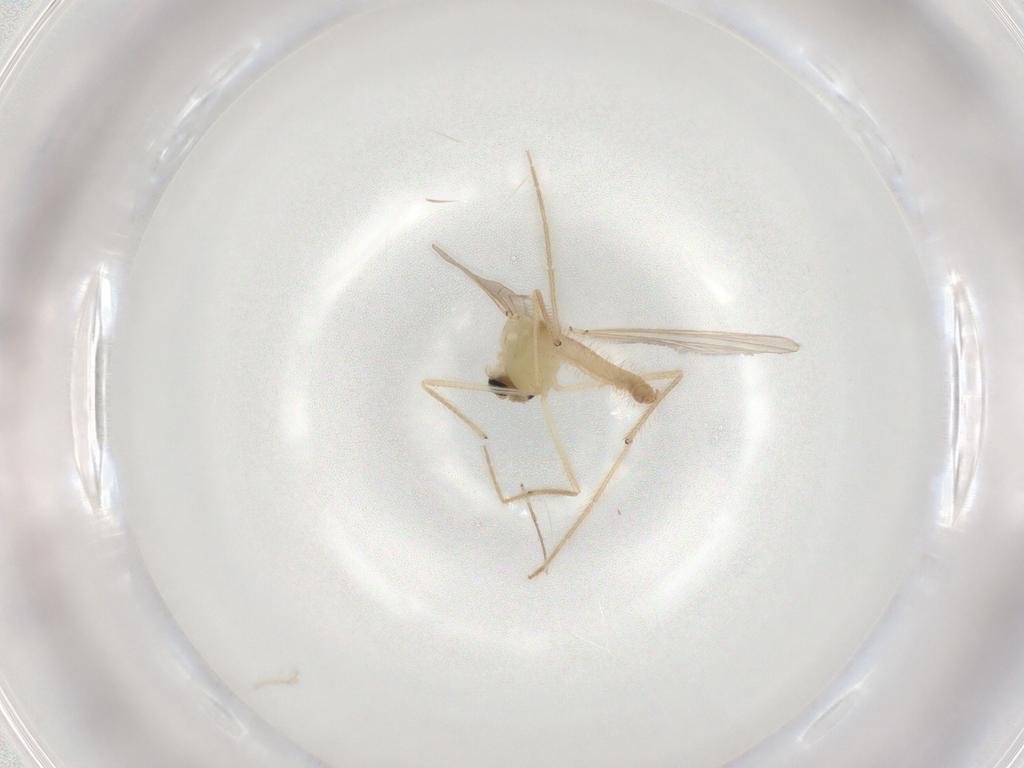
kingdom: Animalia
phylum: Arthropoda
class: Insecta
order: Diptera
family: Chironomidae
